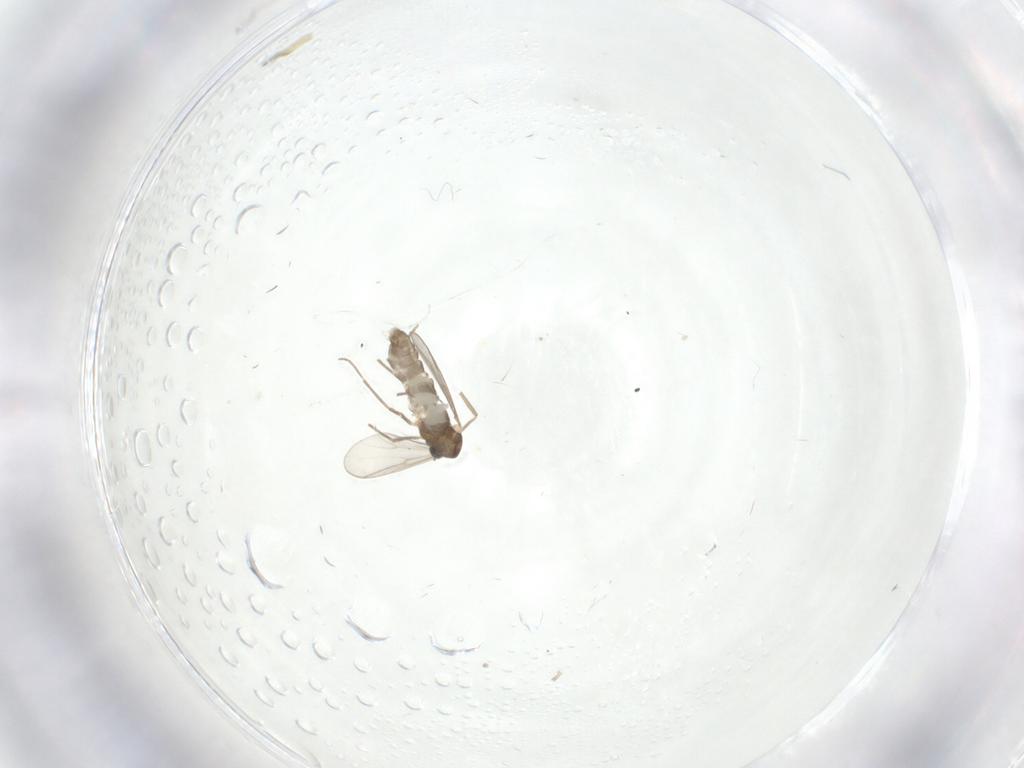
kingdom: Animalia
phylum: Arthropoda
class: Insecta
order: Diptera
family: Chironomidae
